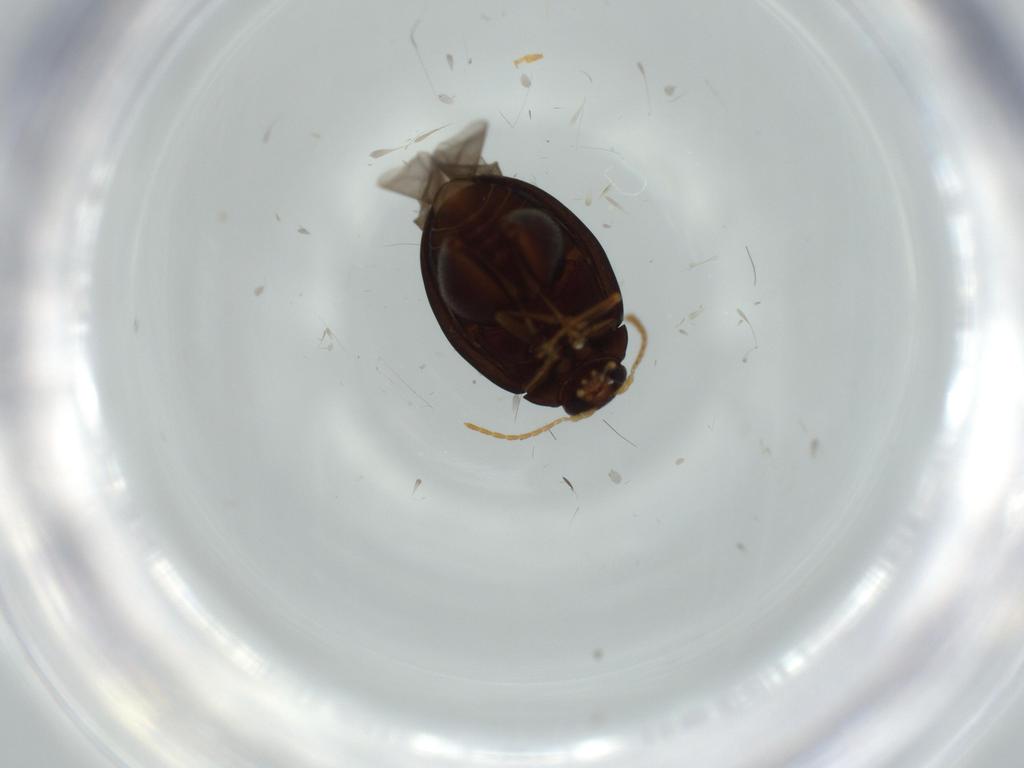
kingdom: Animalia
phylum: Arthropoda
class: Insecta
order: Coleoptera
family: Chrysomelidae
